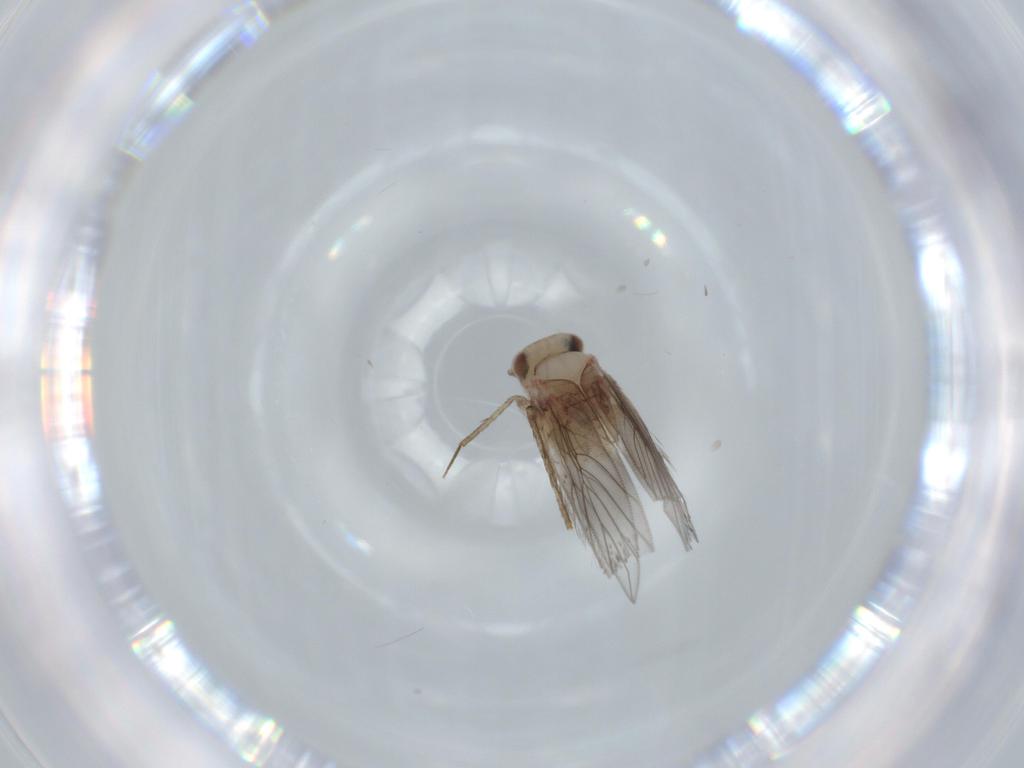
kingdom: Animalia
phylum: Arthropoda
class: Insecta
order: Psocodea
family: Lepidopsocidae
